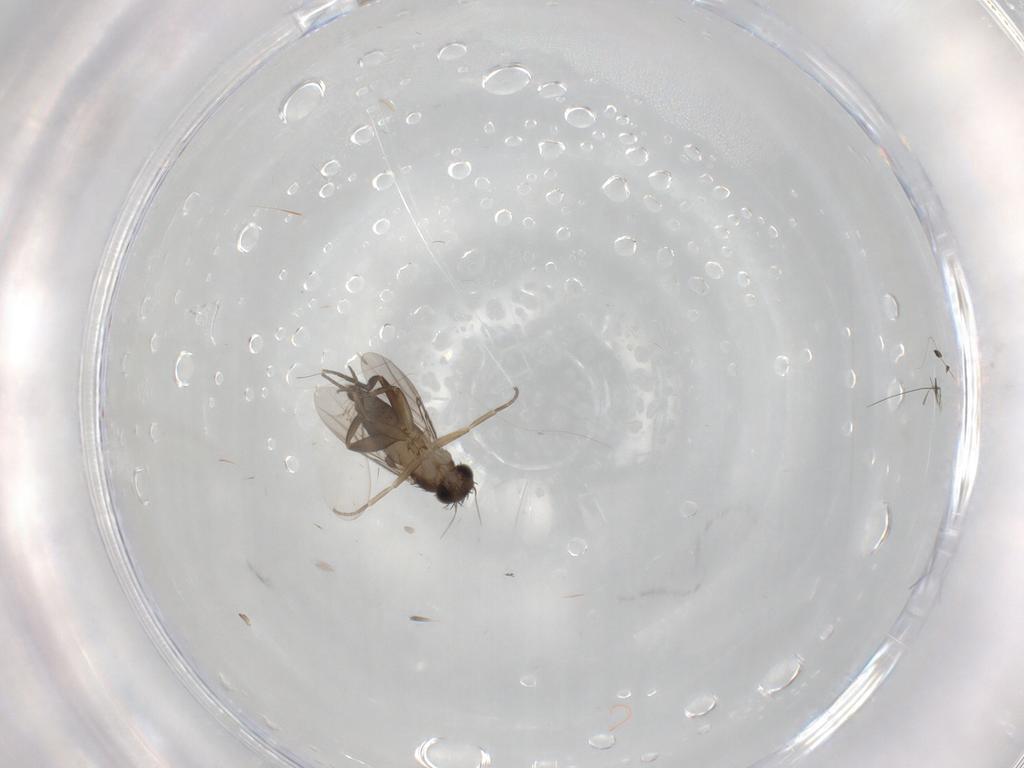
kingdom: Animalia
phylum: Arthropoda
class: Insecta
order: Diptera
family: Phoridae
